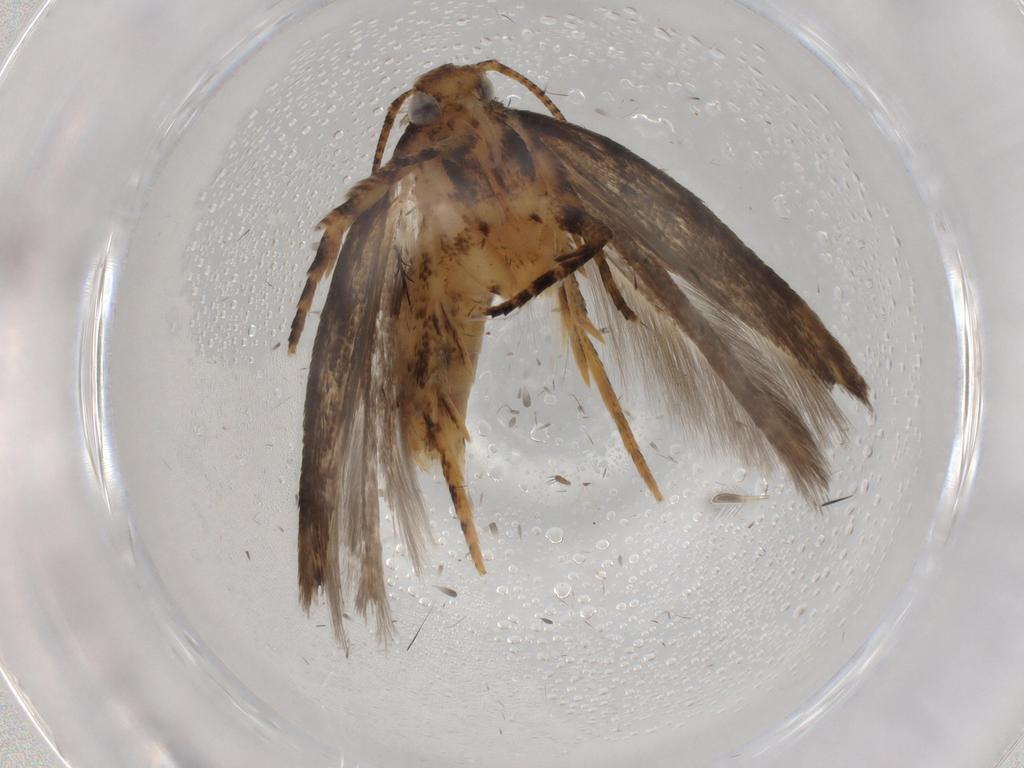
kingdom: Animalia
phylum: Arthropoda
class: Insecta
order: Lepidoptera
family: Gelechiidae
